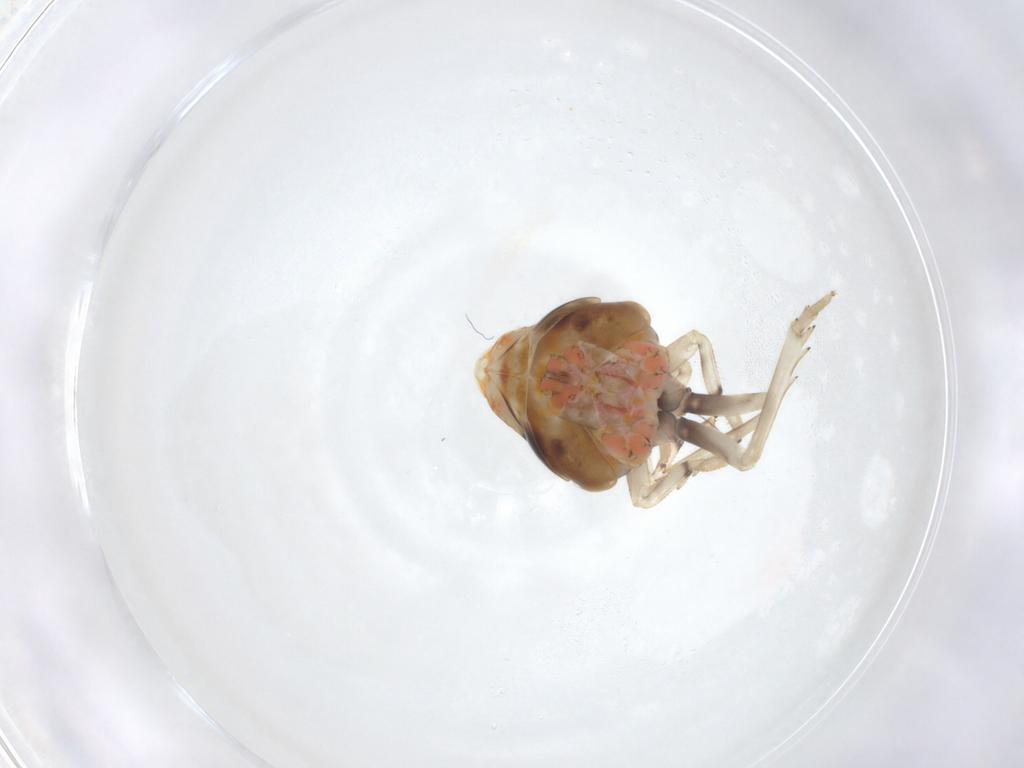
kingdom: Animalia
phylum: Arthropoda
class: Insecta
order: Hemiptera
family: Ricaniidae
